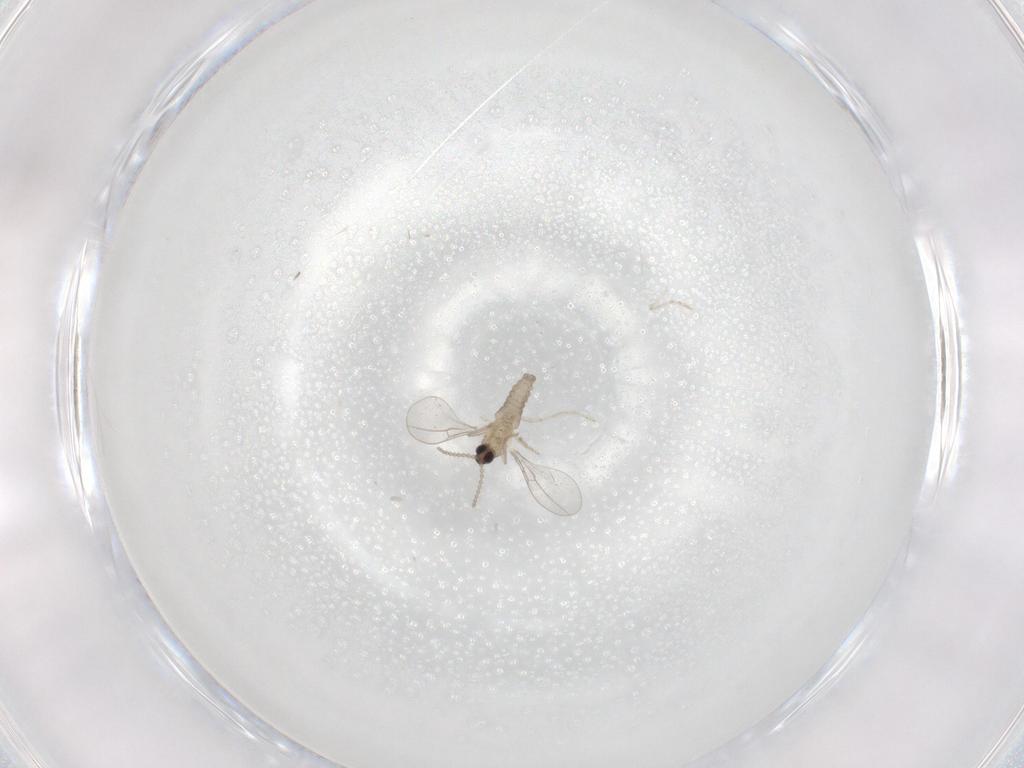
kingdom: Animalia
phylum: Arthropoda
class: Insecta
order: Diptera
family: Cecidomyiidae
